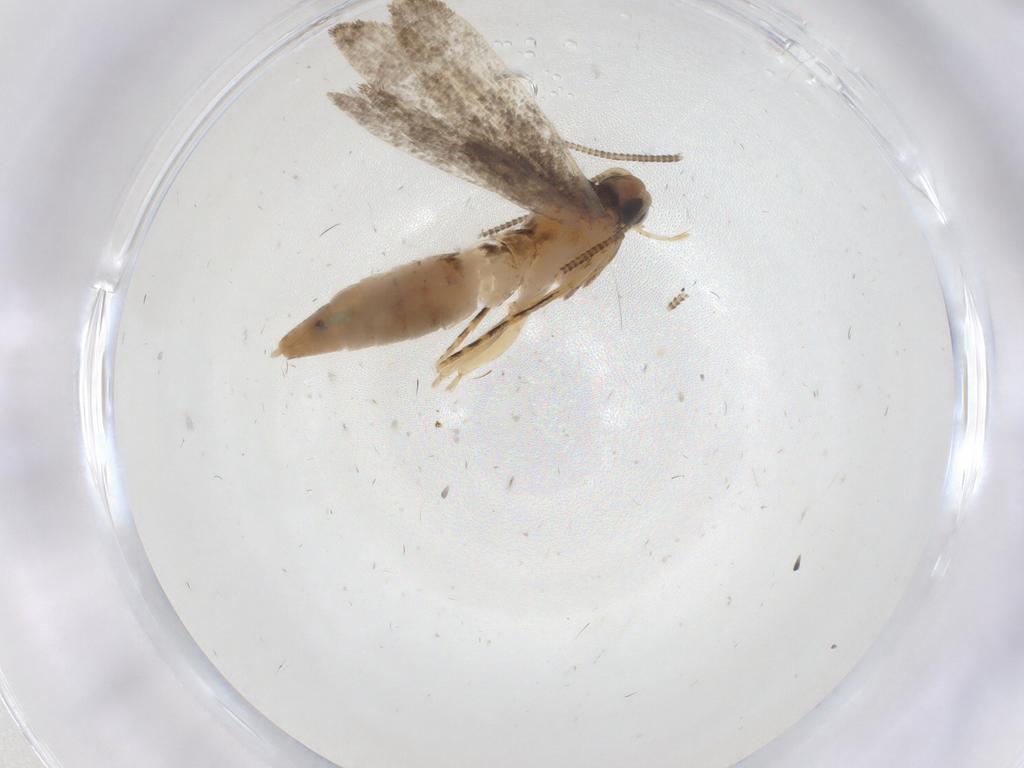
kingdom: Animalia
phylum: Arthropoda
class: Insecta
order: Lepidoptera
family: Tineidae
